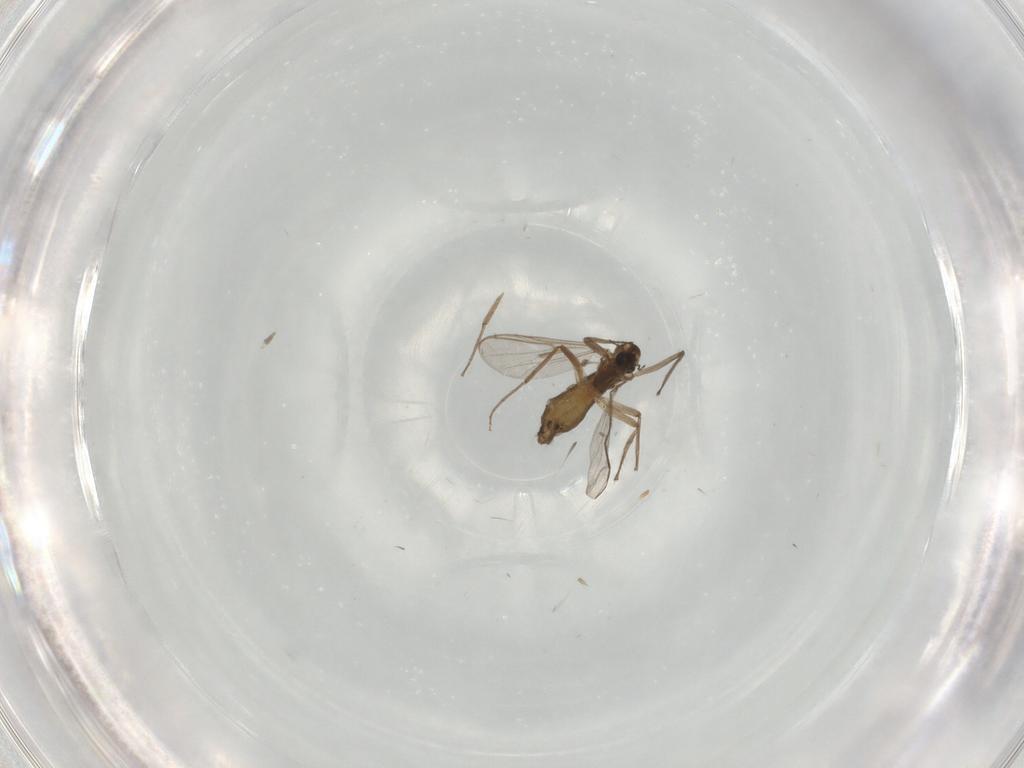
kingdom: Animalia
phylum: Arthropoda
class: Insecta
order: Diptera
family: Chironomidae
